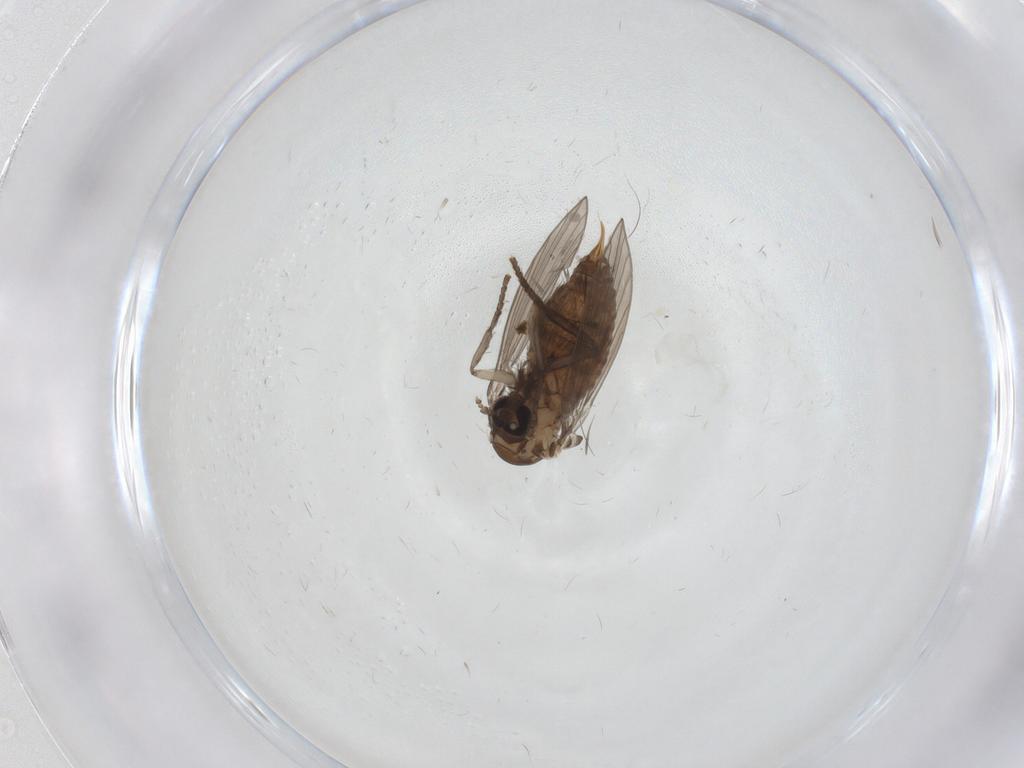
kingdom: Animalia
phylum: Arthropoda
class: Insecta
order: Diptera
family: Psychodidae
